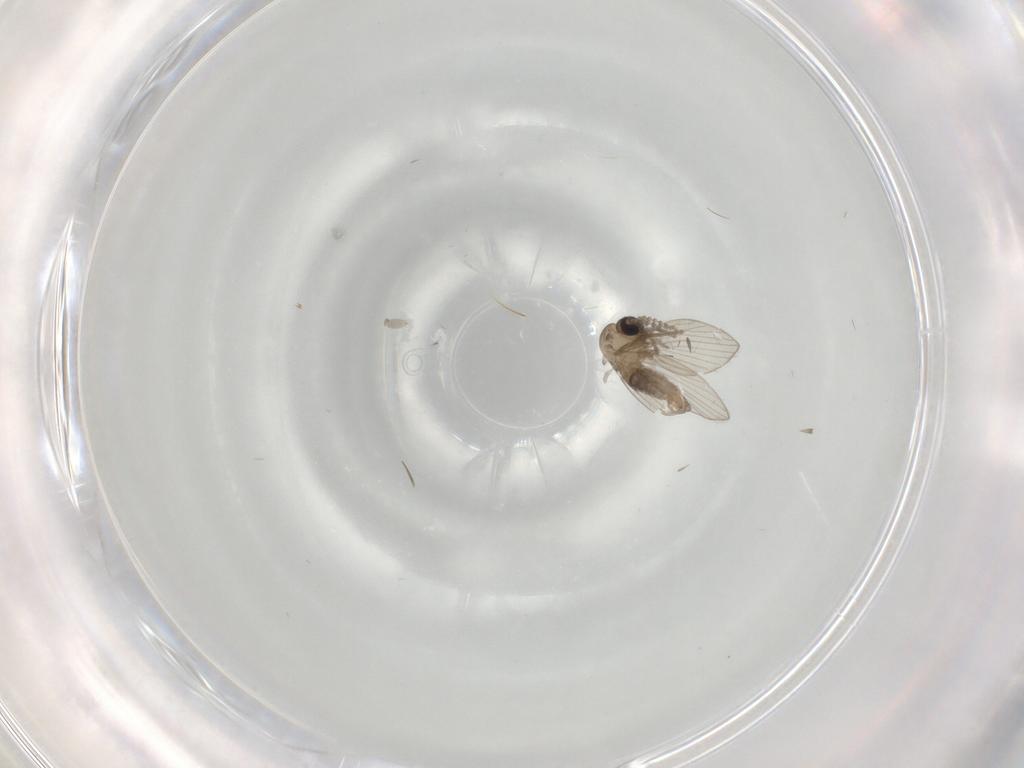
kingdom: Animalia
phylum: Arthropoda
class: Insecta
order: Diptera
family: Psychodidae
